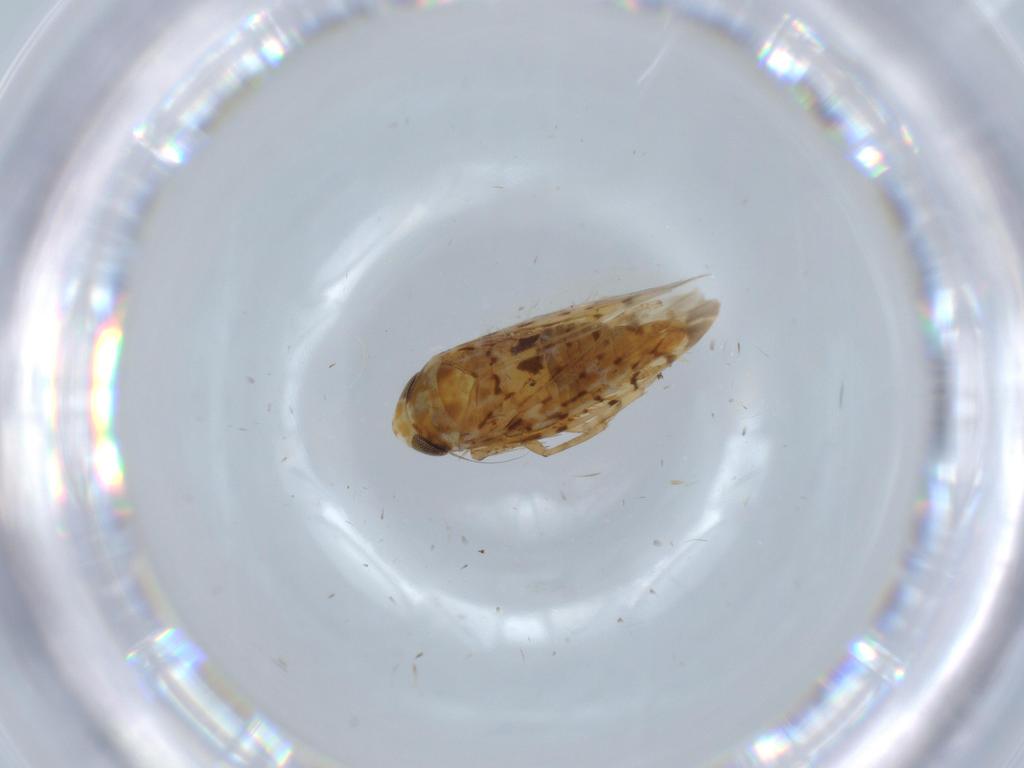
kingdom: Animalia
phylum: Arthropoda
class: Insecta
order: Hemiptera
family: Cicadellidae
